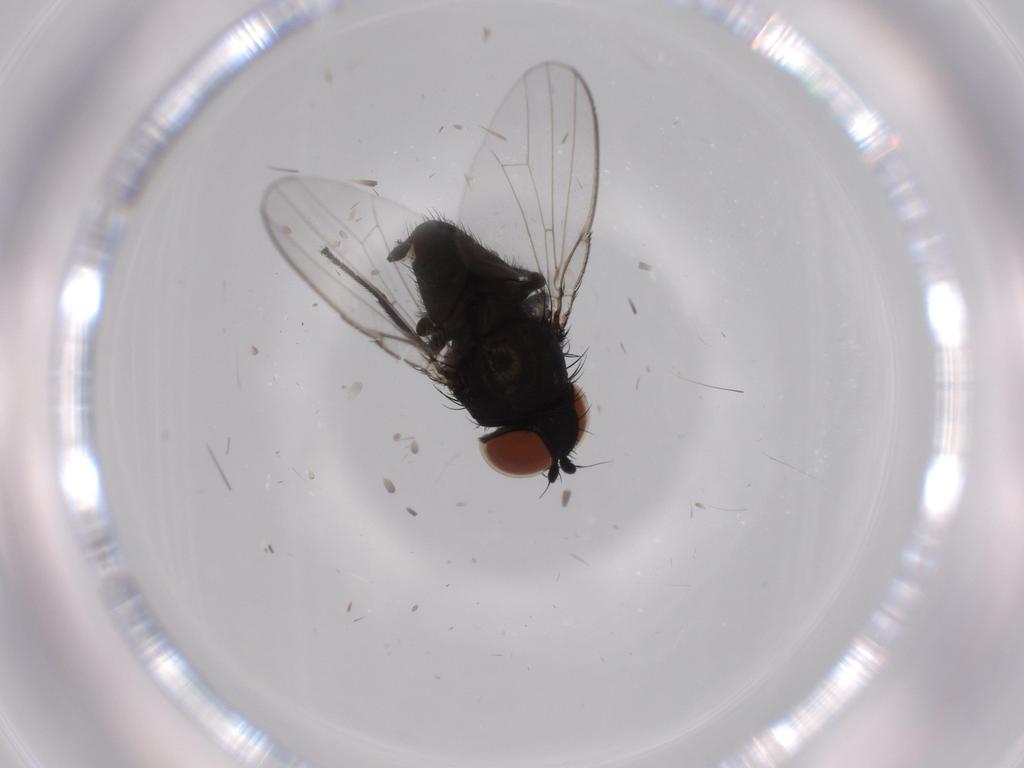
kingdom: Animalia
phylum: Arthropoda
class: Insecta
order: Diptera
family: Milichiidae
